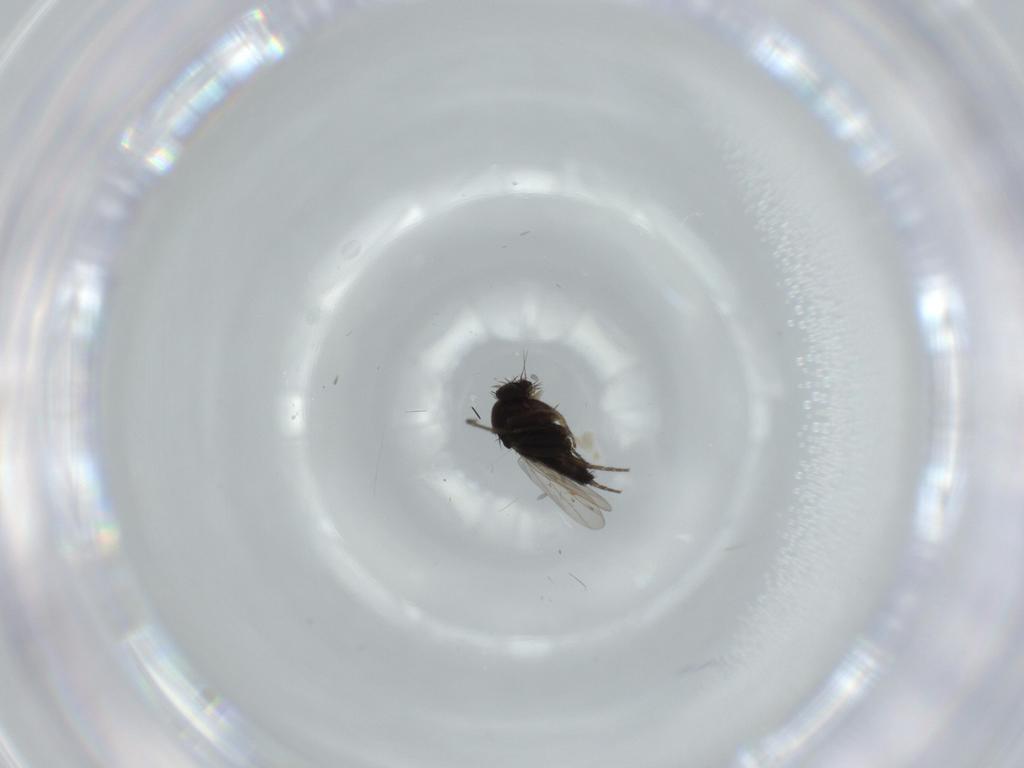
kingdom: Animalia
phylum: Arthropoda
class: Insecta
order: Diptera
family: Phoridae
